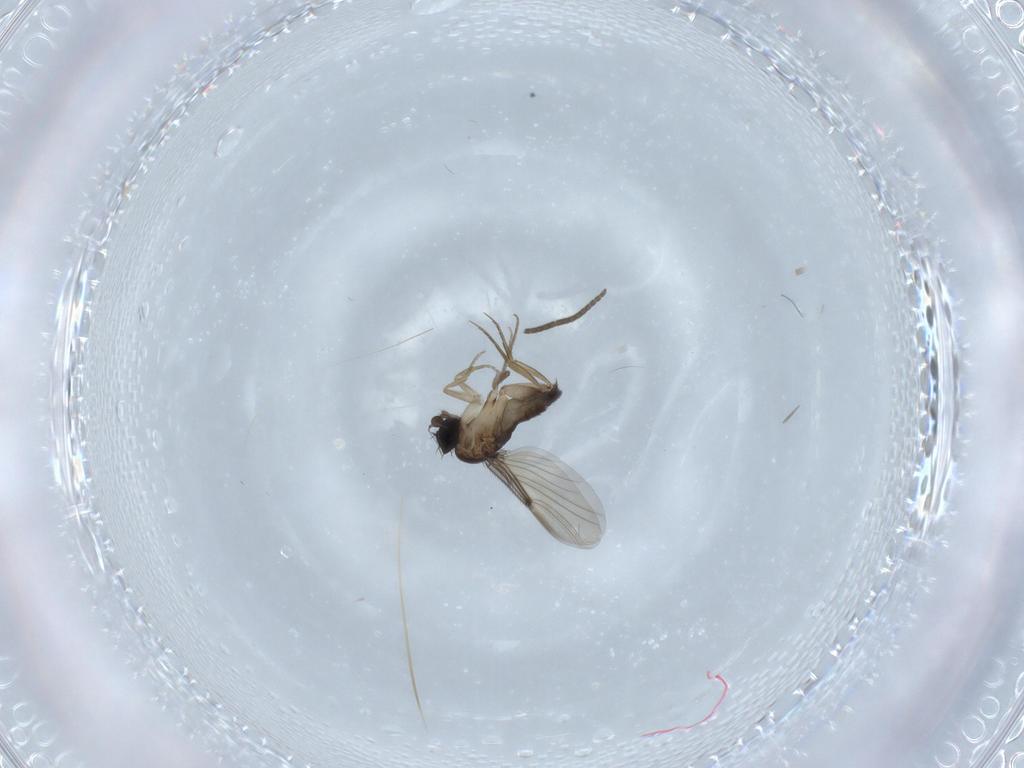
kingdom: Animalia
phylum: Arthropoda
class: Insecta
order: Diptera
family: Phoridae
